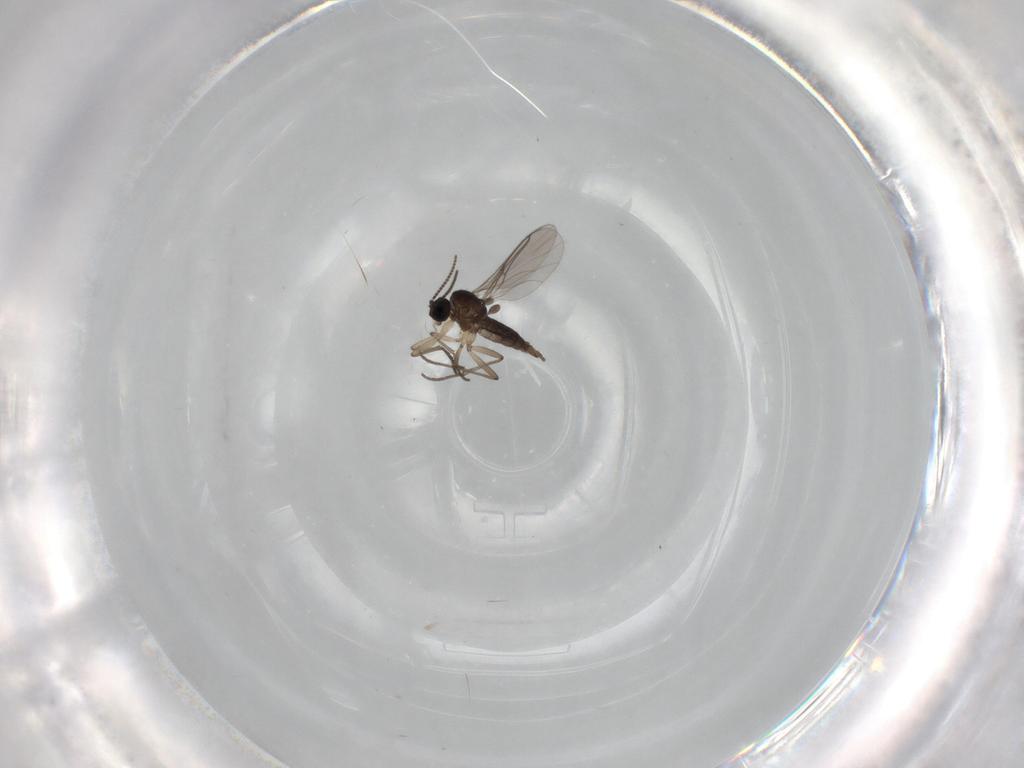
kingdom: Animalia
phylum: Arthropoda
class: Insecta
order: Diptera
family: Sciaridae
